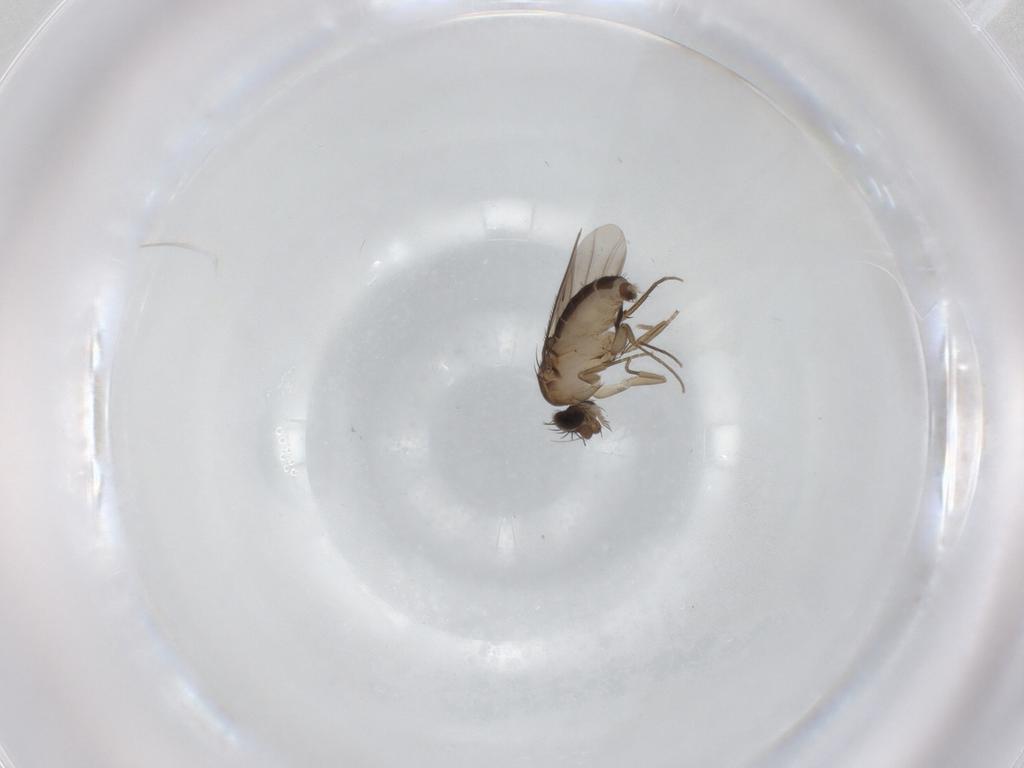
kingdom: Animalia
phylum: Arthropoda
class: Insecta
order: Diptera
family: Phoridae
